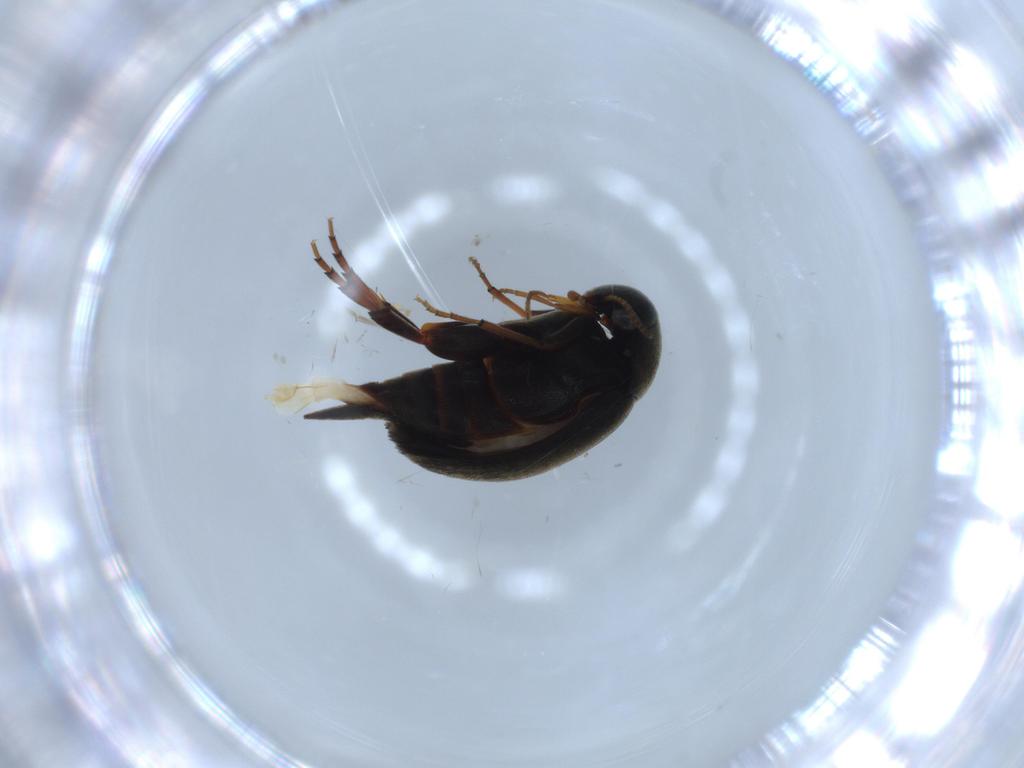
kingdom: Animalia
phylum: Arthropoda
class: Insecta
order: Coleoptera
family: Mordellidae
